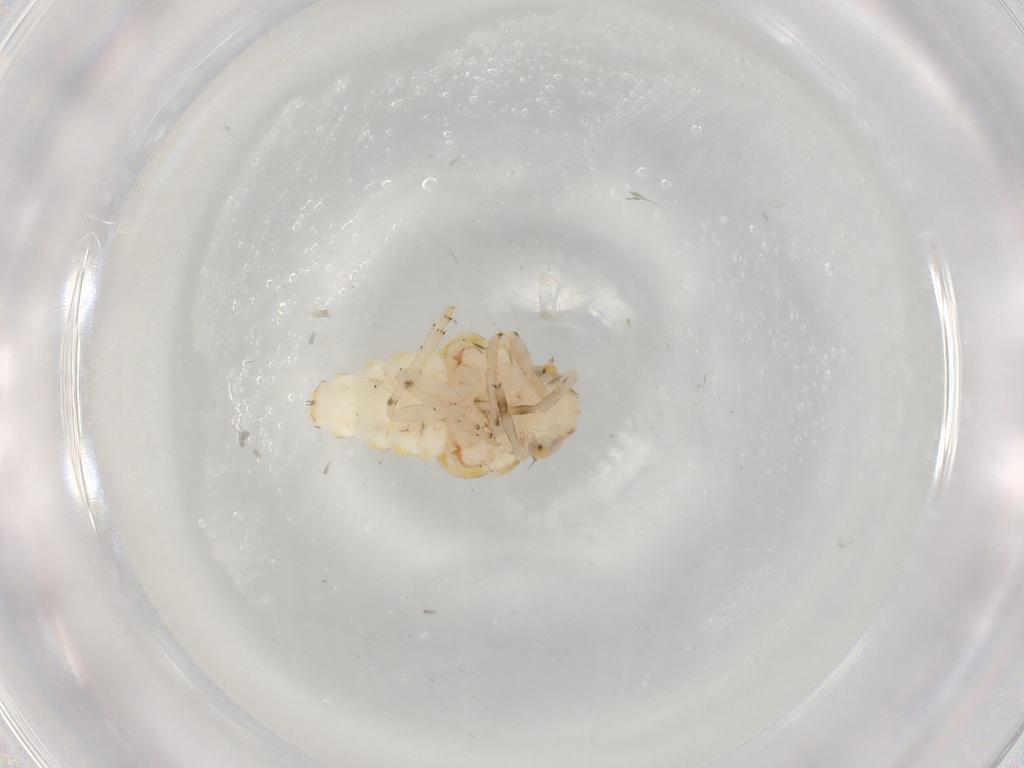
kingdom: Animalia
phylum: Arthropoda
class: Insecta
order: Hemiptera
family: Nogodinidae
